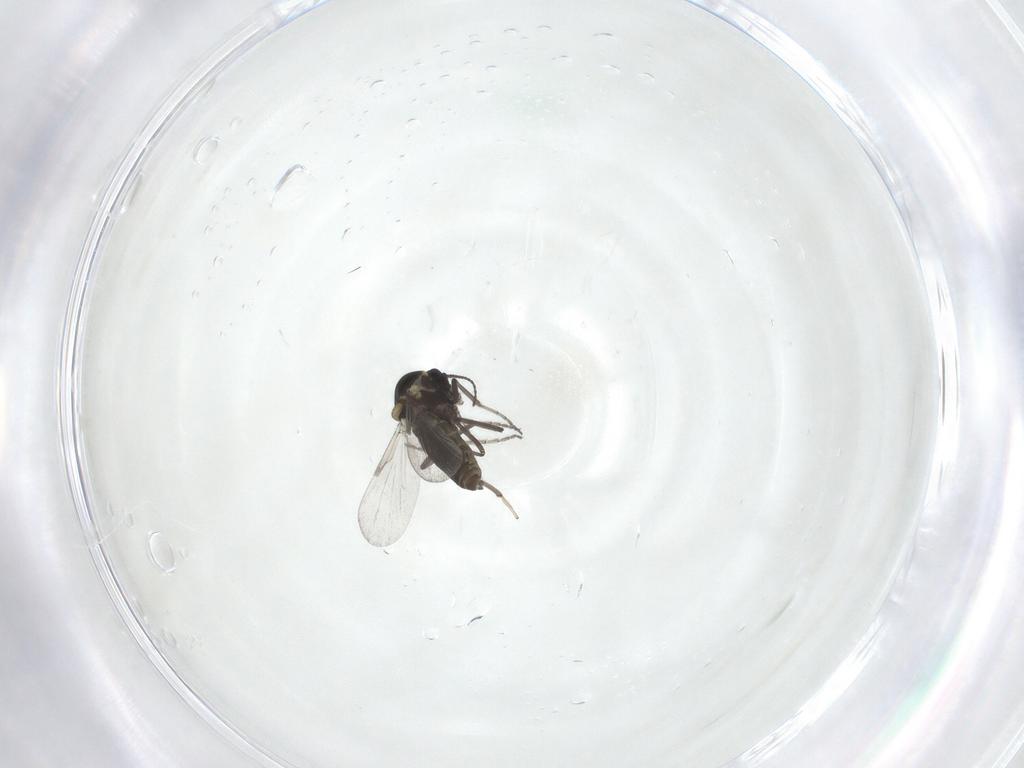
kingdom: Animalia
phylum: Arthropoda
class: Insecta
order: Diptera
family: Ceratopogonidae
